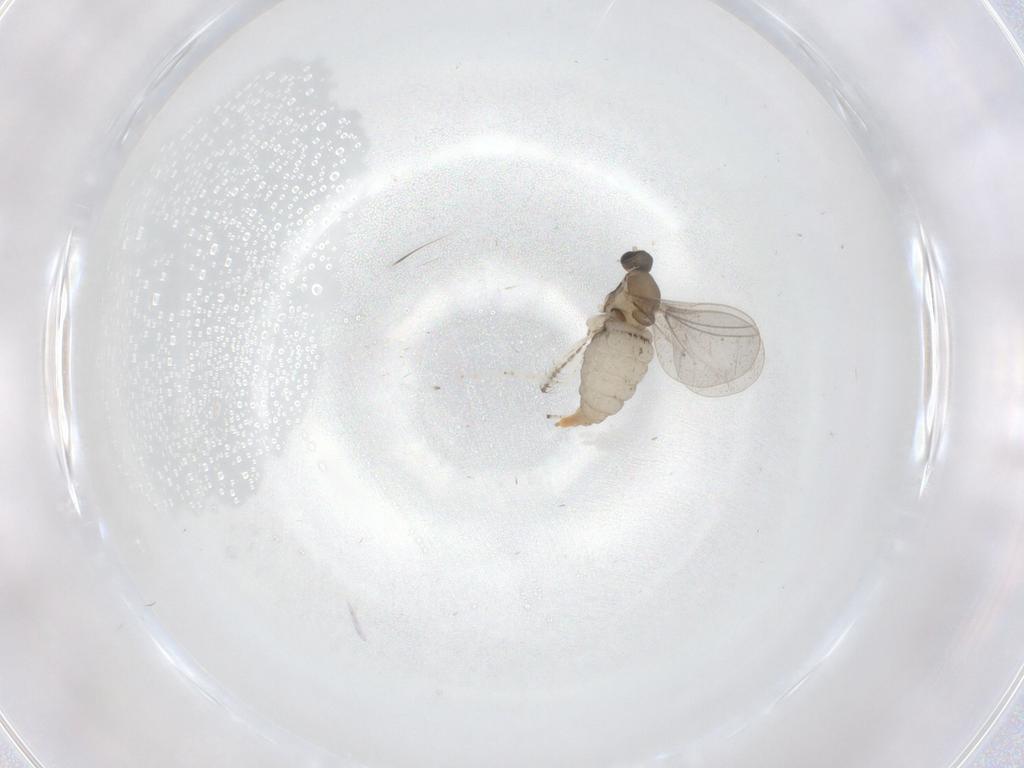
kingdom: Animalia
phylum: Arthropoda
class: Insecta
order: Diptera
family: Cecidomyiidae
